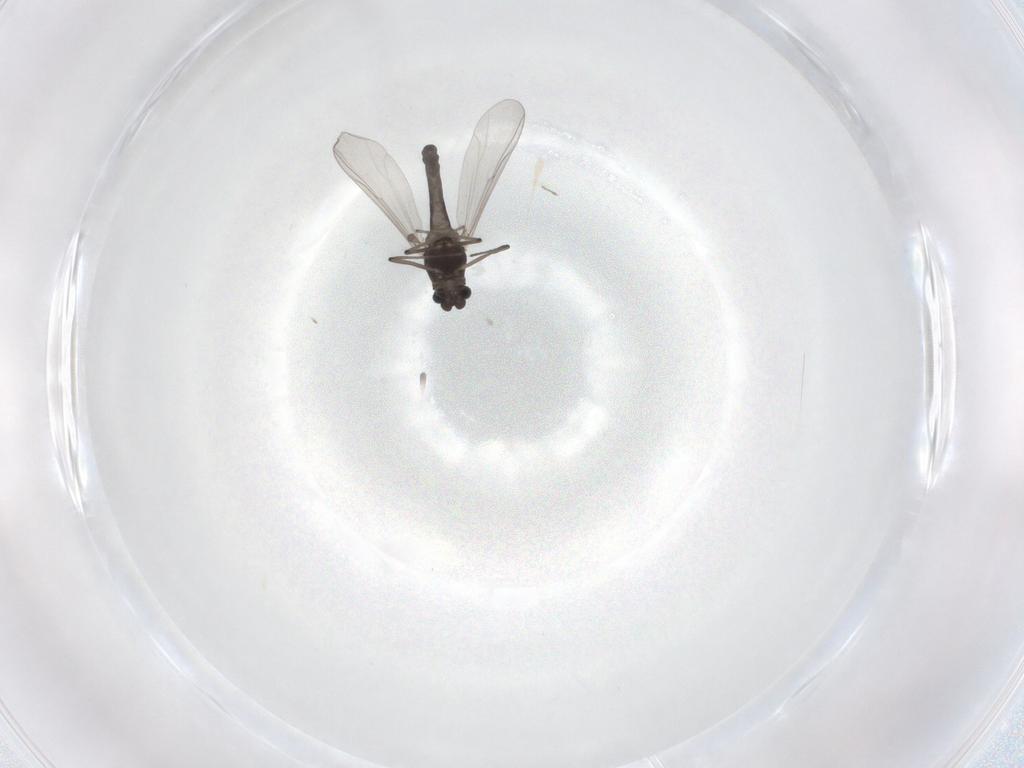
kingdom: Animalia
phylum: Arthropoda
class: Insecta
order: Diptera
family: Chironomidae
